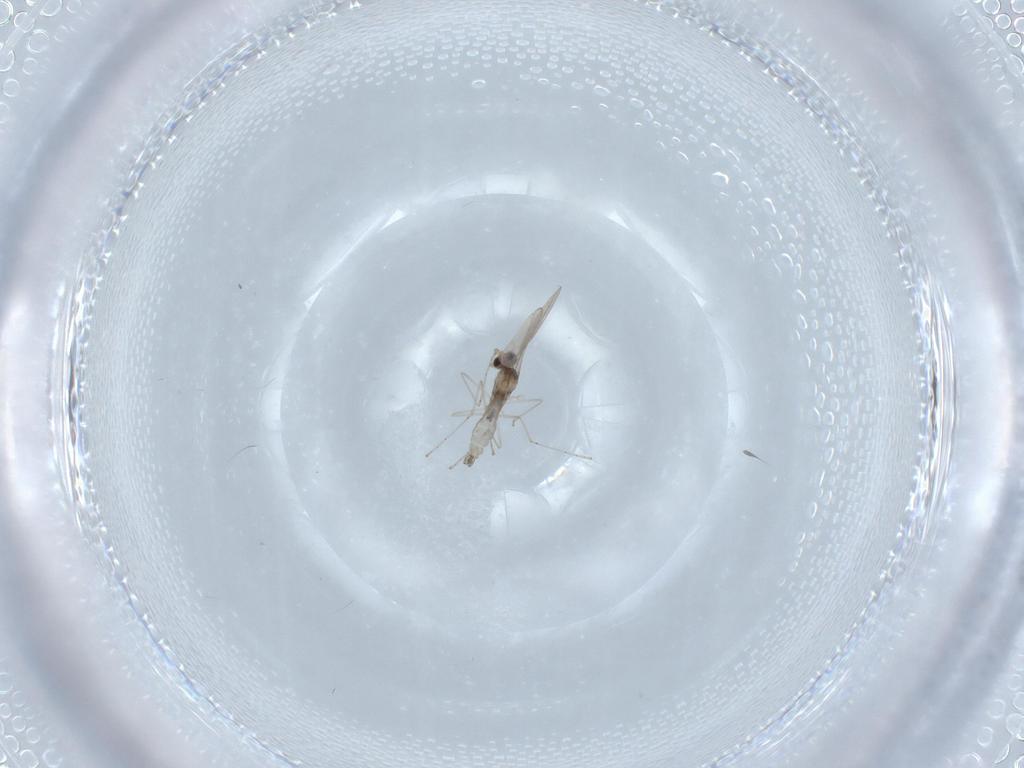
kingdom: Animalia
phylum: Arthropoda
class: Insecta
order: Diptera
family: Cecidomyiidae
